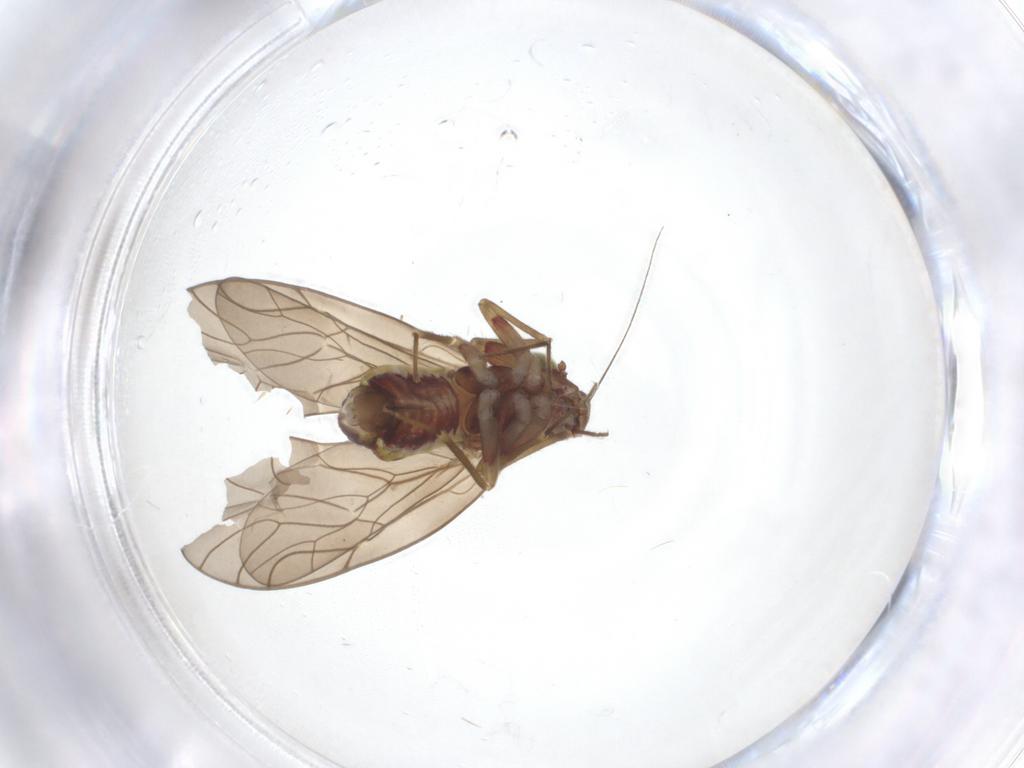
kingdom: Animalia
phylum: Arthropoda
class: Insecta
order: Psocodea
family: Philotarsidae
